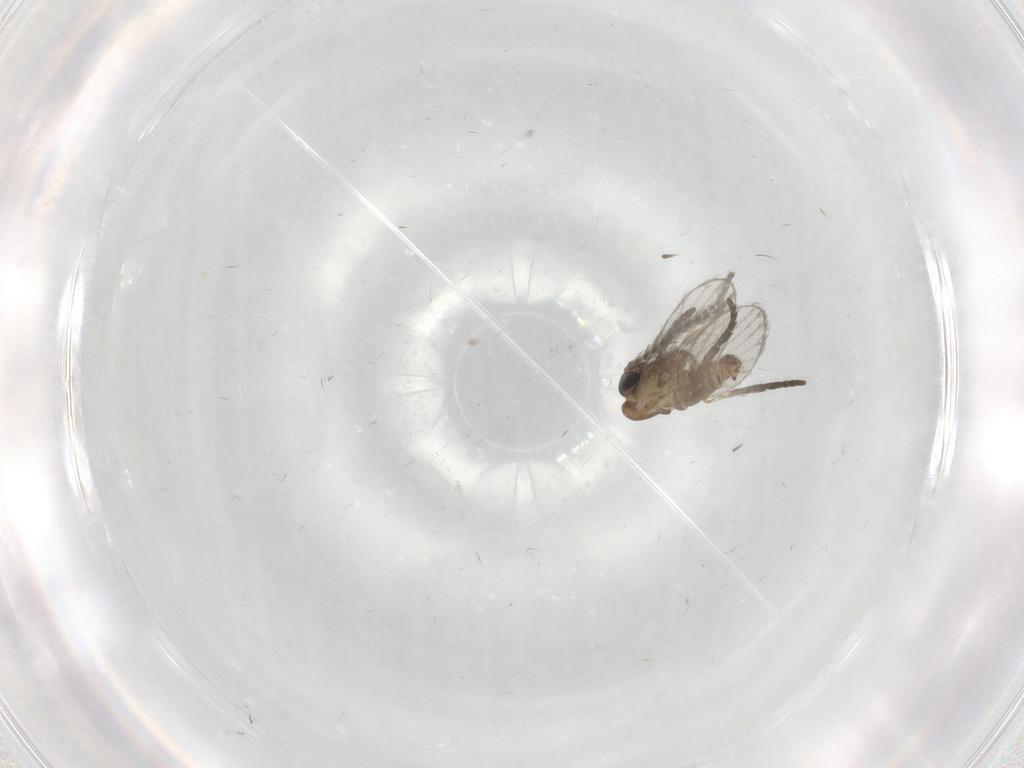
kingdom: Animalia
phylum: Arthropoda
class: Insecta
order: Diptera
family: Cecidomyiidae
